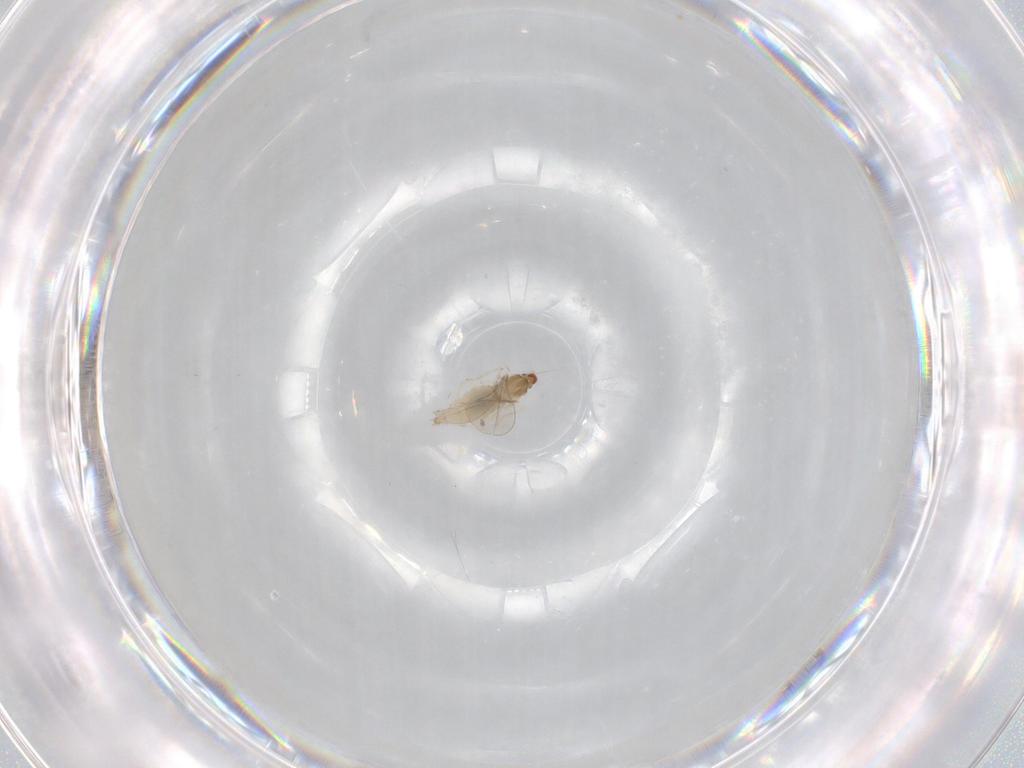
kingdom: Animalia
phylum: Arthropoda
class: Insecta
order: Diptera
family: Cecidomyiidae
